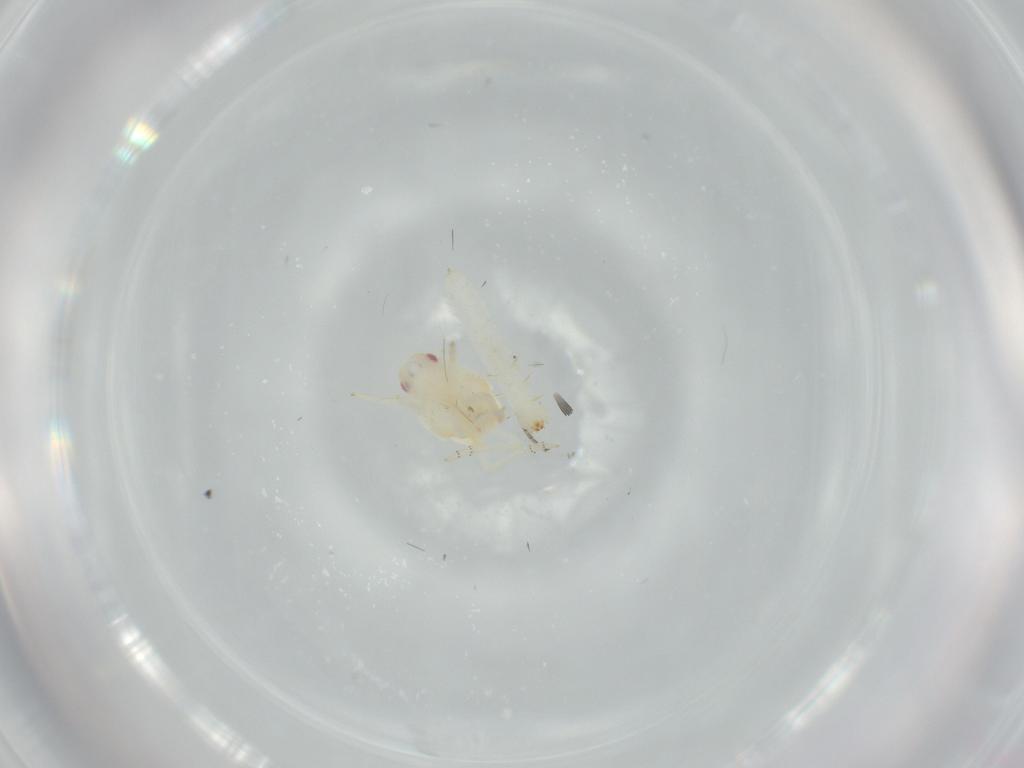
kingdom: Animalia
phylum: Arthropoda
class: Insecta
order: Hemiptera
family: Flatidae
